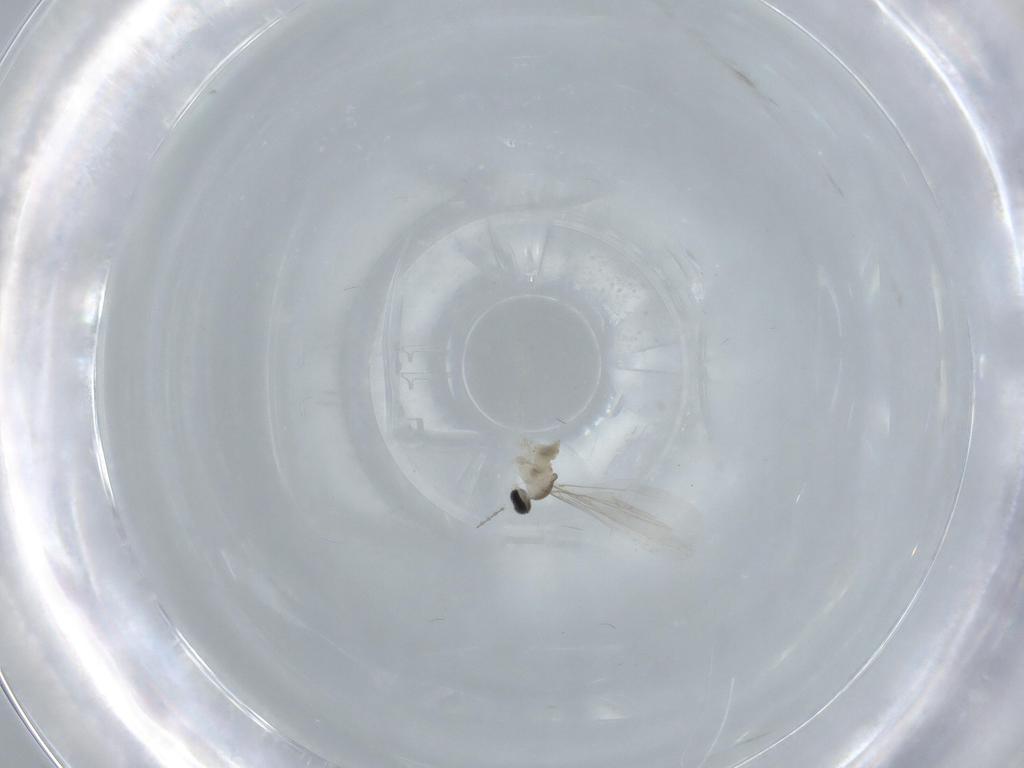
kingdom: Animalia
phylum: Arthropoda
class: Insecta
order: Diptera
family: Cecidomyiidae
